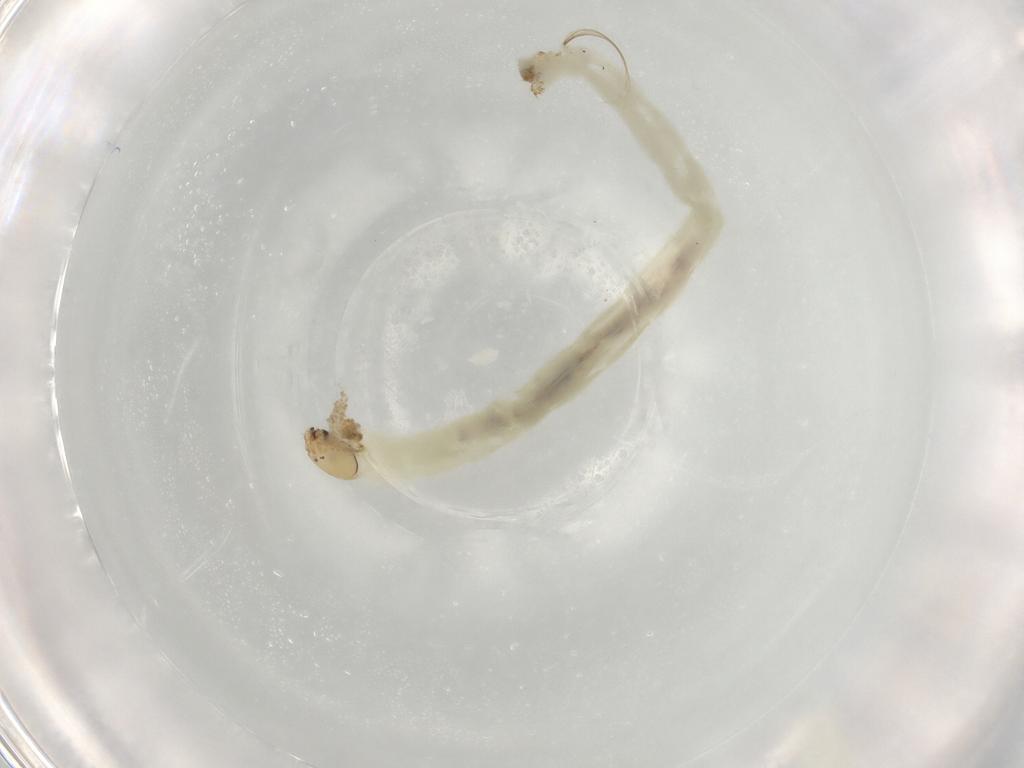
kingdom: Animalia
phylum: Arthropoda
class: Insecta
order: Diptera
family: Chironomidae
